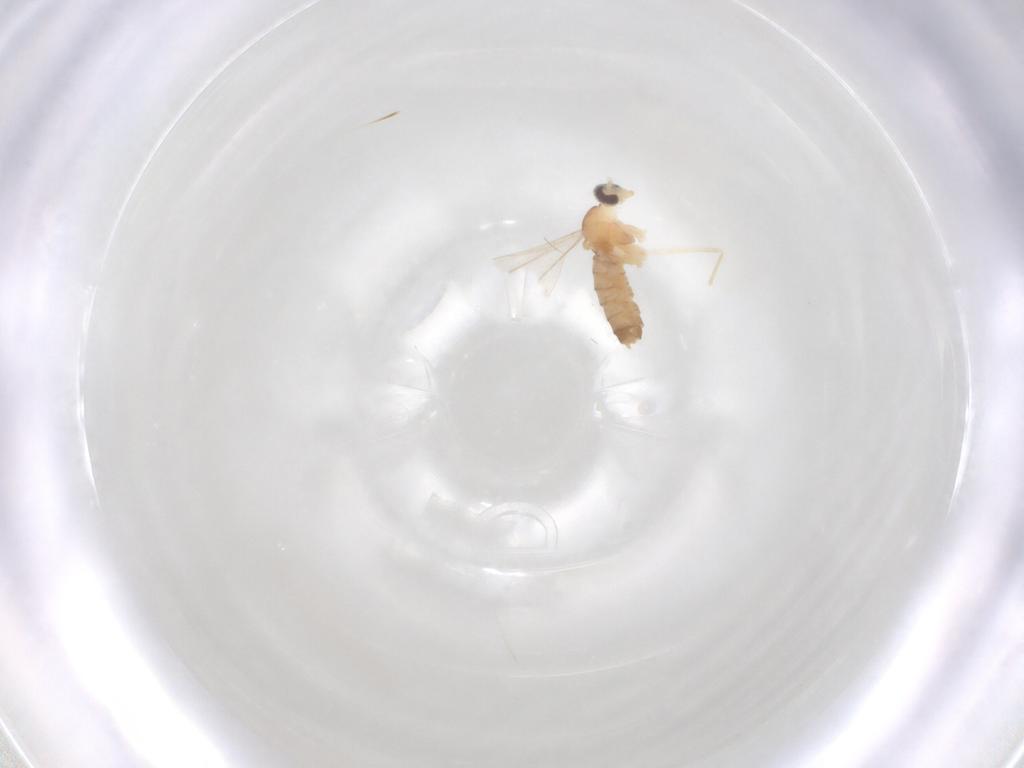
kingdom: Animalia
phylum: Arthropoda
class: Insecta
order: Diptera
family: Cecidomyiidae
